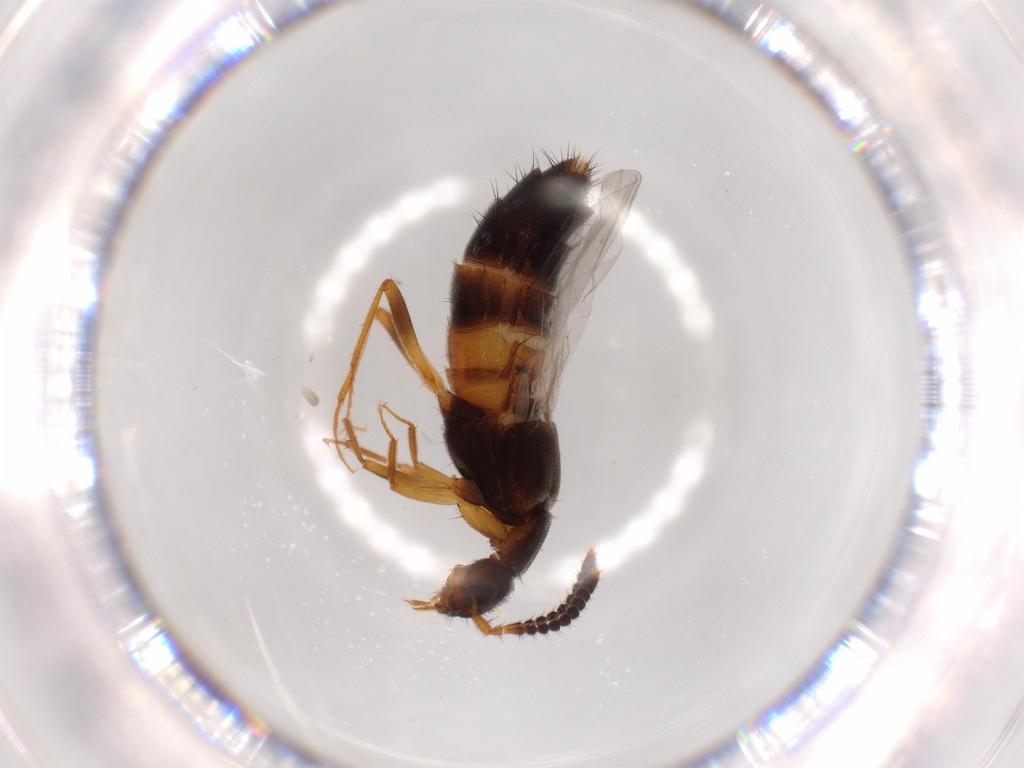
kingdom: Animalia
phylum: Arthropoda
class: Insecta
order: Coleoptera
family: Staphylinidae
